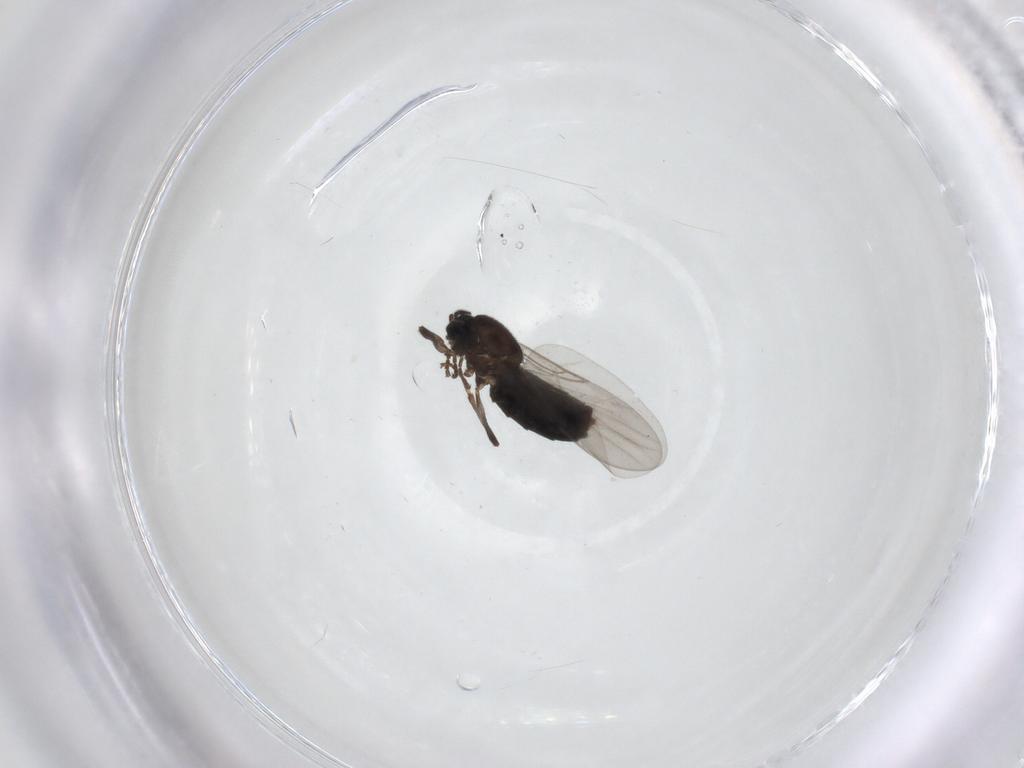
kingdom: Animalia
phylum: Arthropoda
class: Insecta
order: Diptera
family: Scatopsidae
